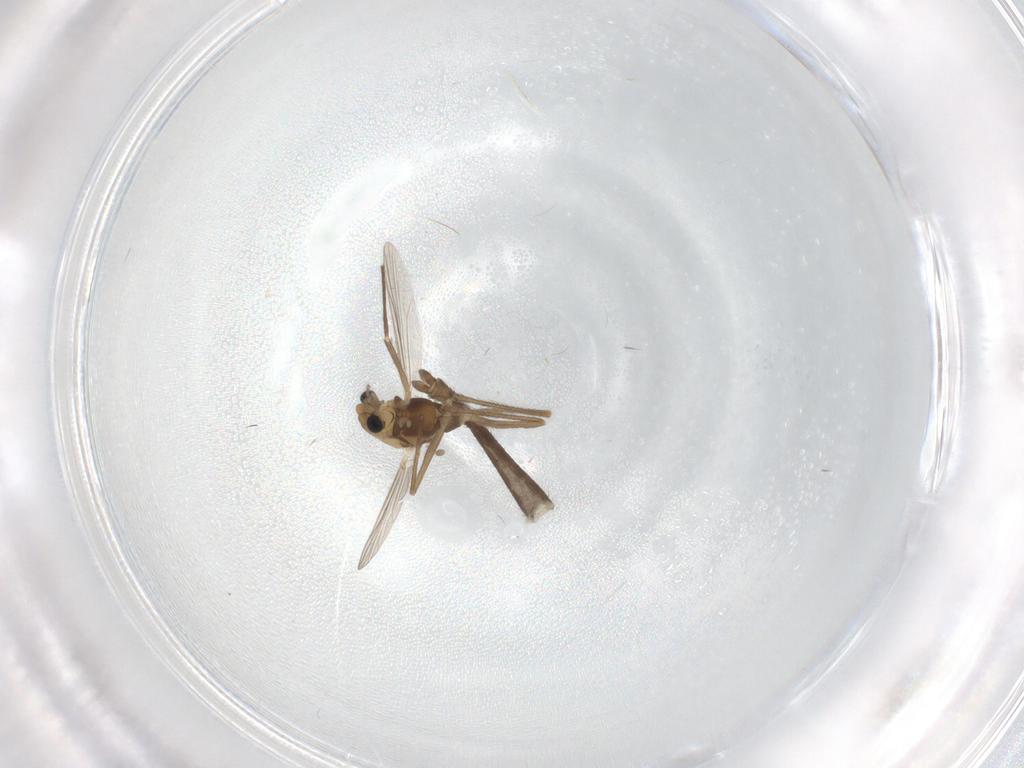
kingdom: Animalia
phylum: Arthropoda
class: Insecta
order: Diptera
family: Chironomidae
